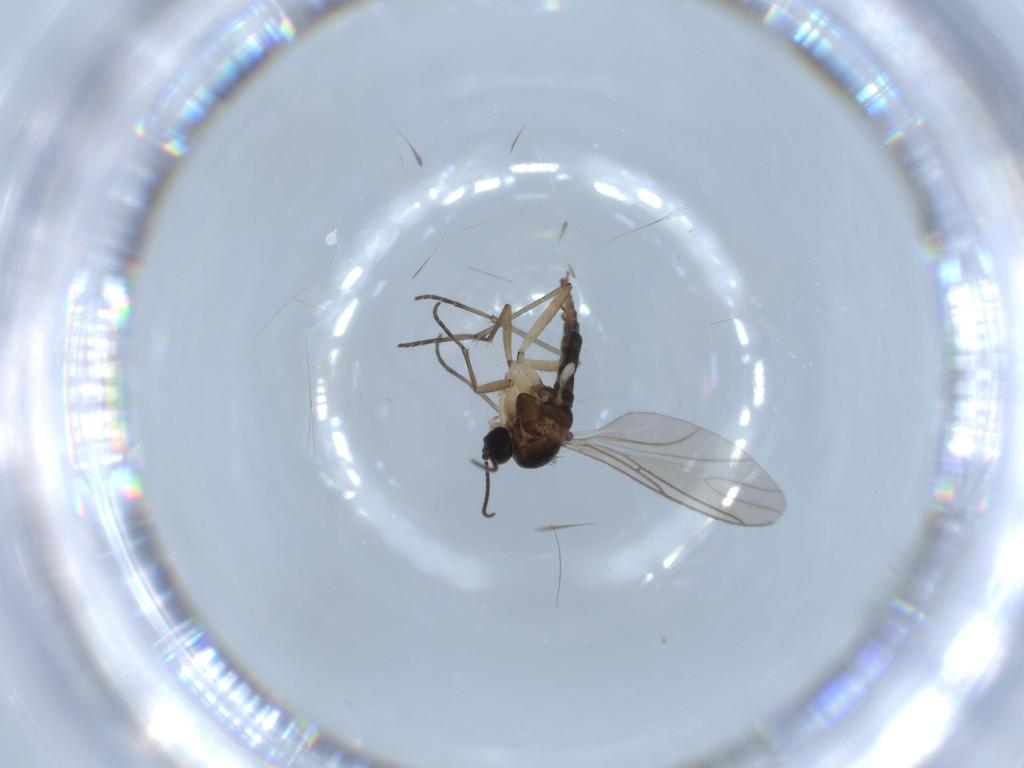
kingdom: Animalia
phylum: Arthropoda
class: Insecta
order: Diptera
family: Sciaridae
